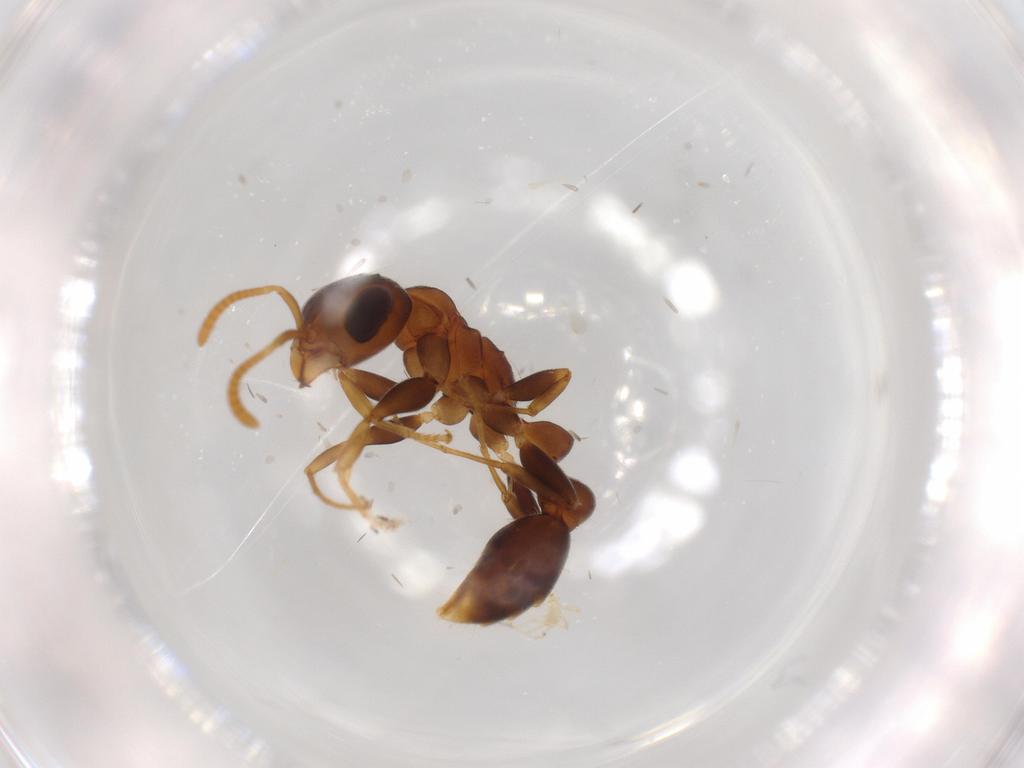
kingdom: Animalia
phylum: Arthropoda
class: Insecta
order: Hymenoptera
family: Formicidae
